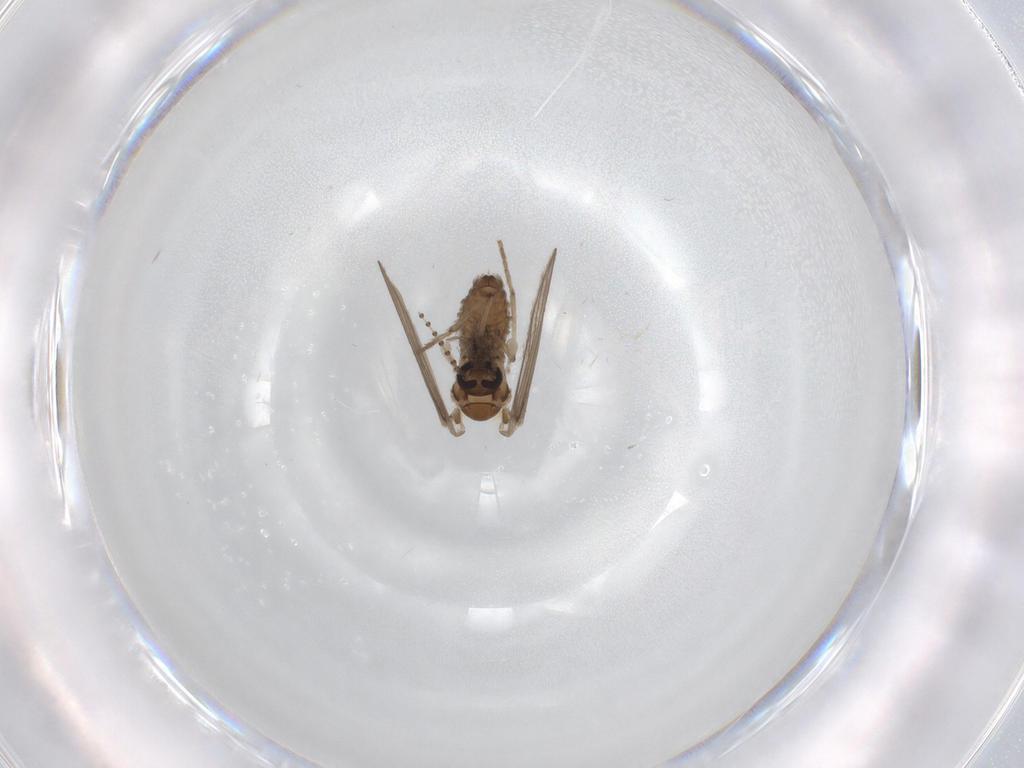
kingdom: Animalia
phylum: Arthropoda
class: Insecta
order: Diptera
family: Psychodidae
